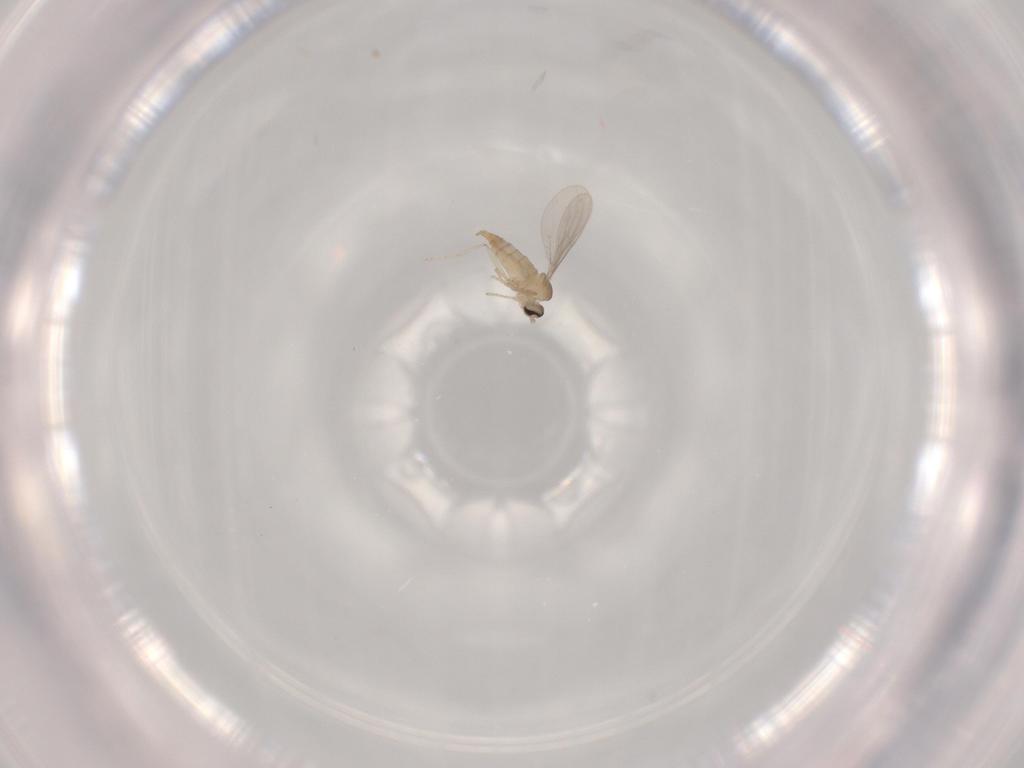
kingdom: Animalia
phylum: Arthropoda
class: Insecta
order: Diptera
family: Cecidomyiidae
